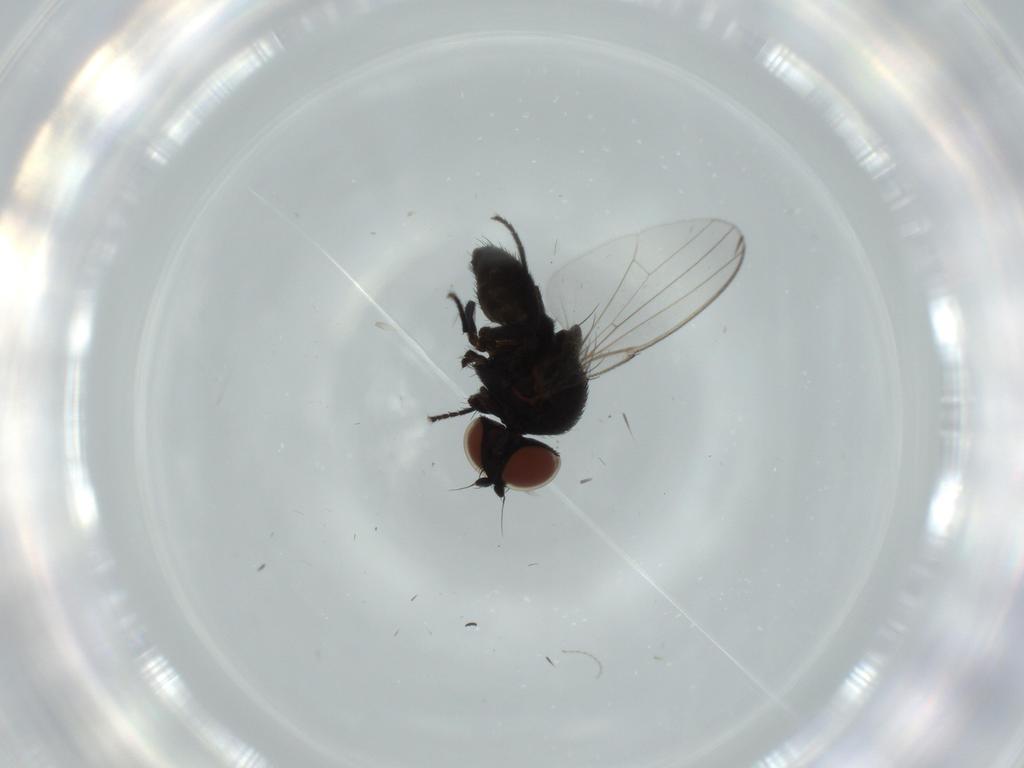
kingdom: Animalia
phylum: Arthropoda
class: Insecta
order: Diptera
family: Milichiidae
